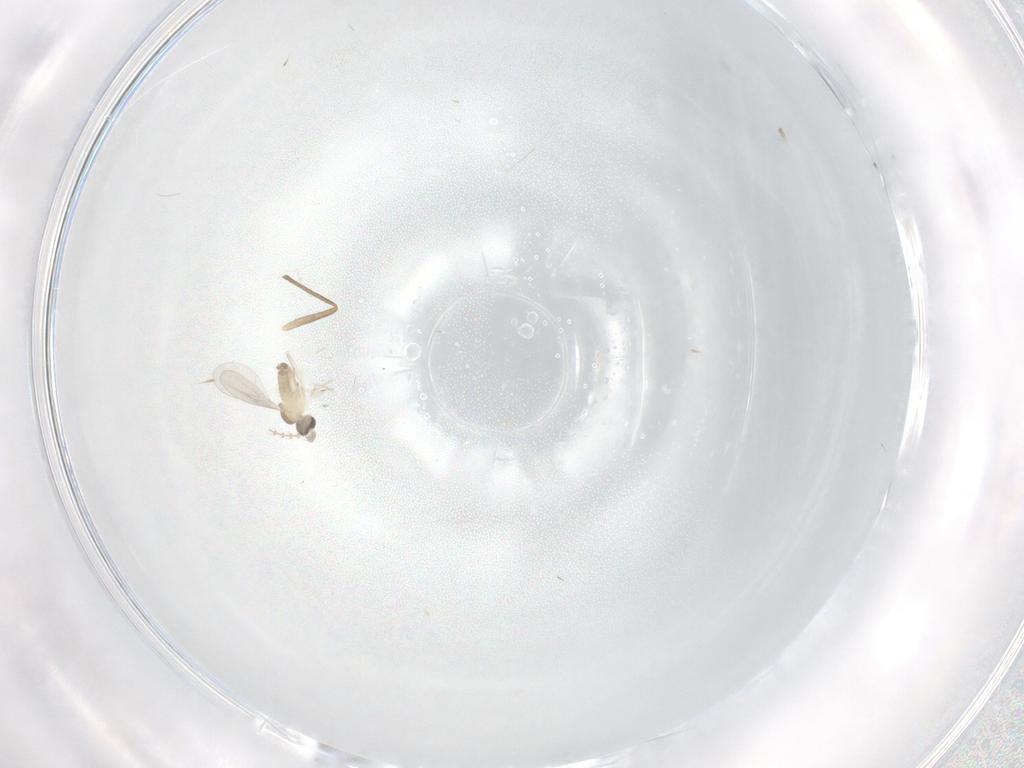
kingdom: Animalia
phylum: Arthropoda
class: Insecta
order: Diptera
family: Cecidomyiidae
